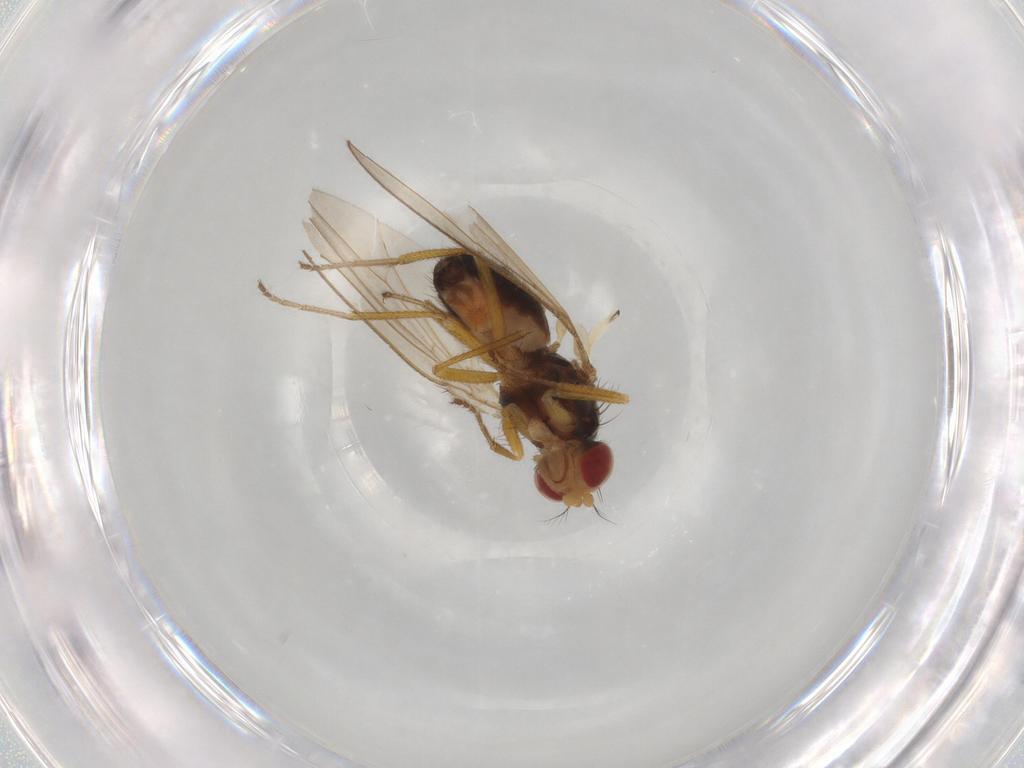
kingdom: Animalia
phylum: Arthropoda
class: Insecta
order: Diptera
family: Drosophilidae
